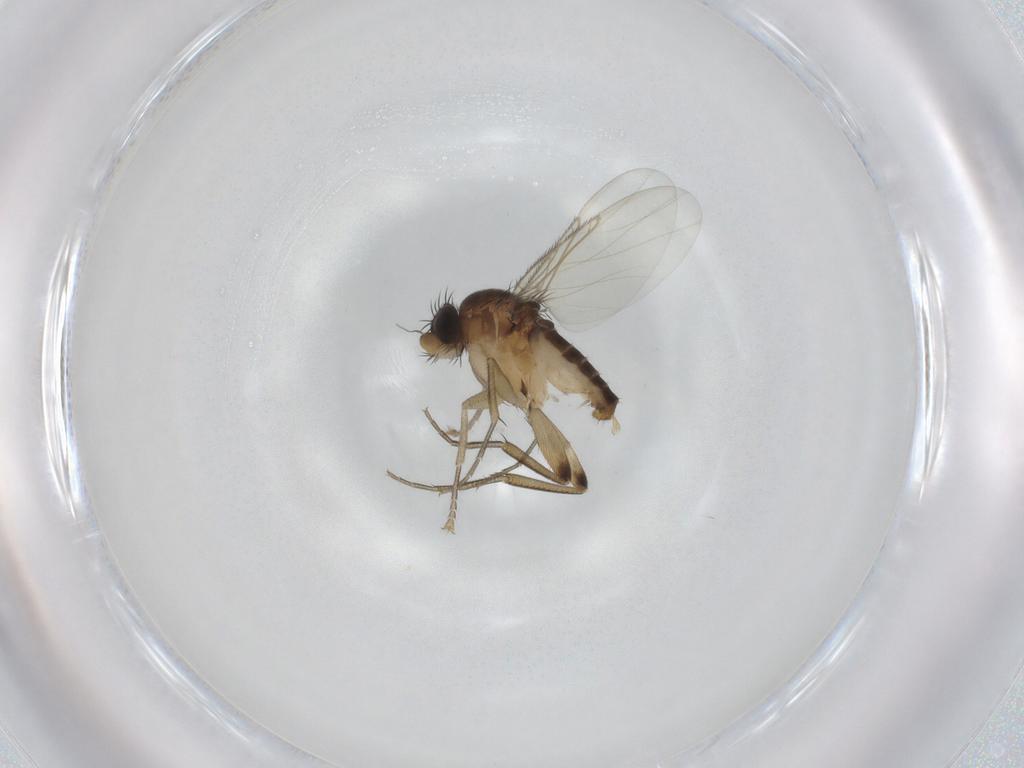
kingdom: Animalia
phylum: Arthropoda
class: Insecta
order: Diptera
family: Phoridae
